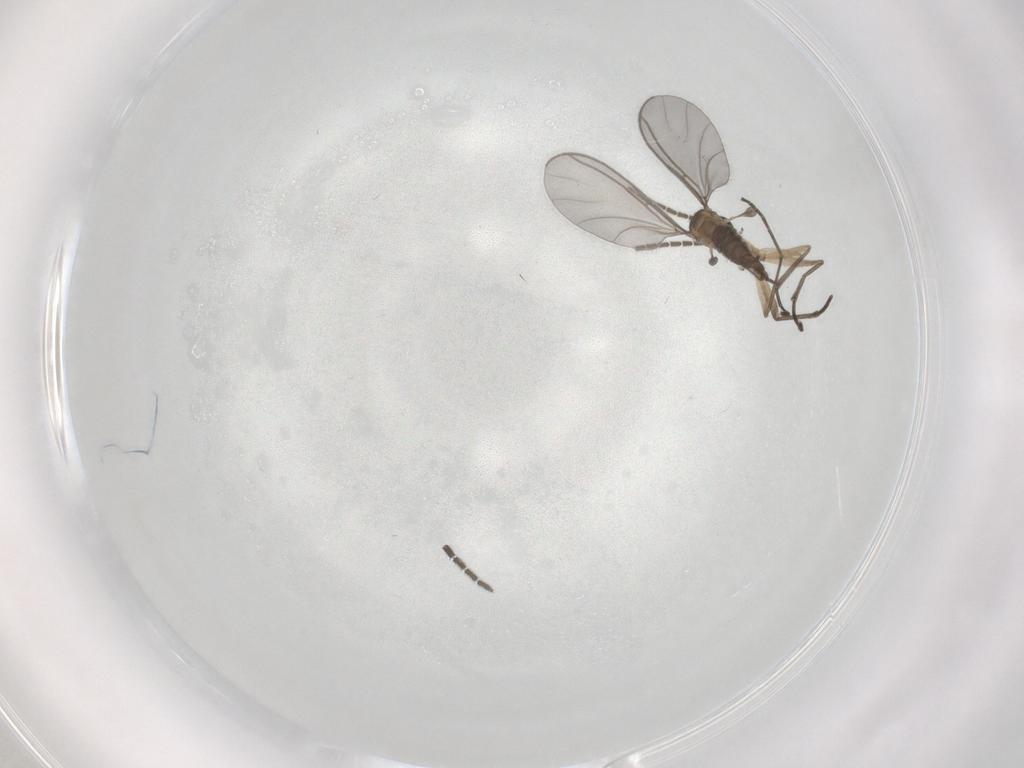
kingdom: Animalia
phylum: Arthropoda
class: Insecta
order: Diptera
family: Sciaridae
